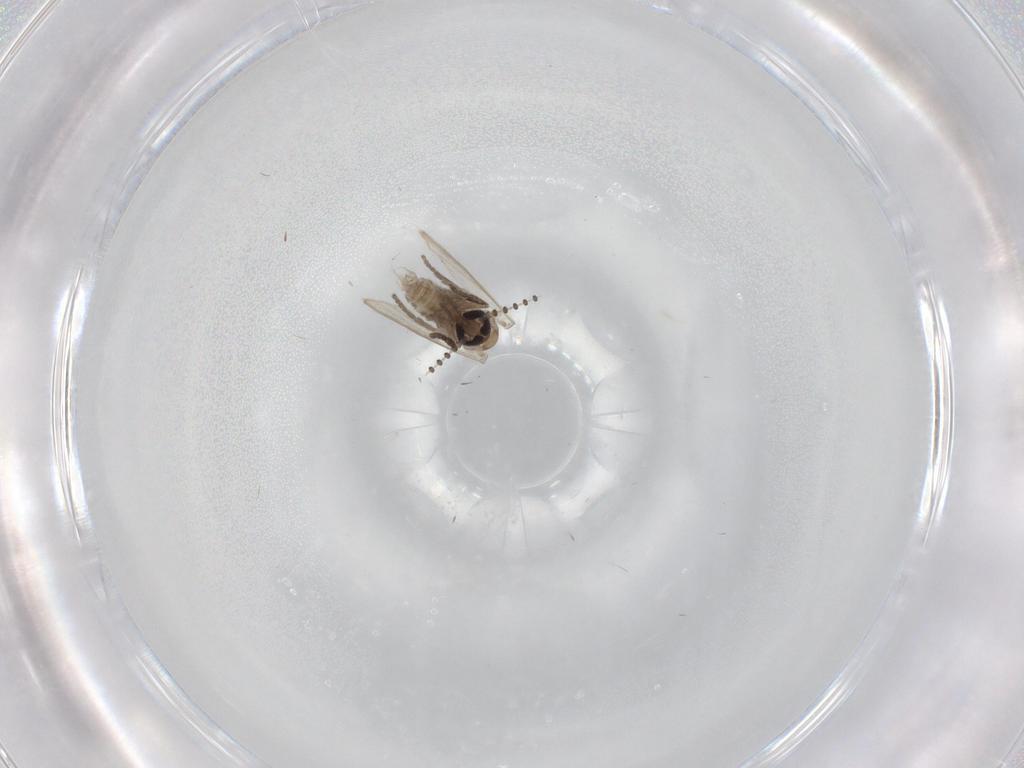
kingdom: Animalia
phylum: Arthropoda
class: Insecta
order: Diptera
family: Psychodidae
